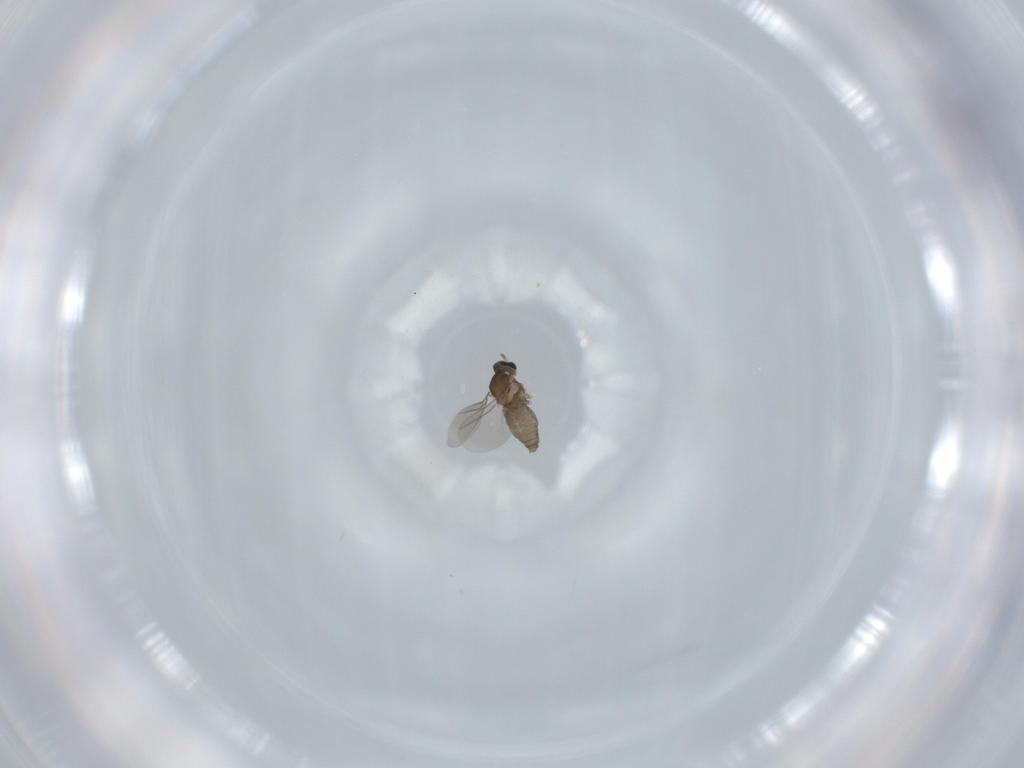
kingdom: Animalia
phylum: Arthropoda
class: Insecta
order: Diptera
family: Cecidomyiidae
